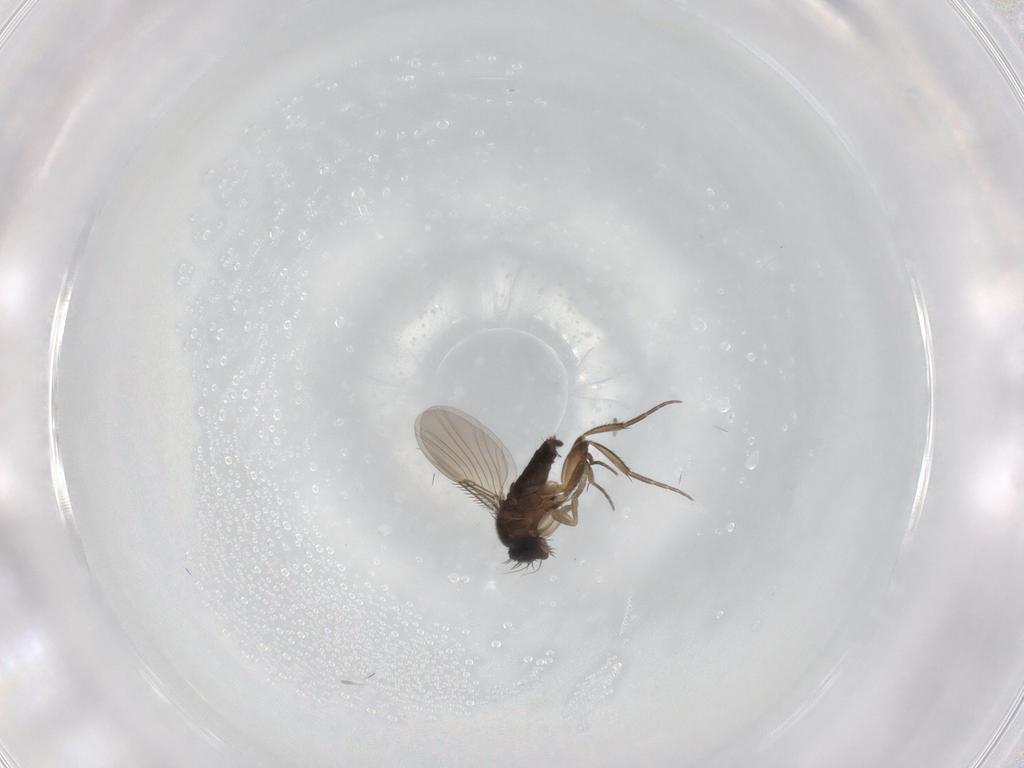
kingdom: Animalia
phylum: Arthropoda
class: Insecta
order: Diptera
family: Phoridae
